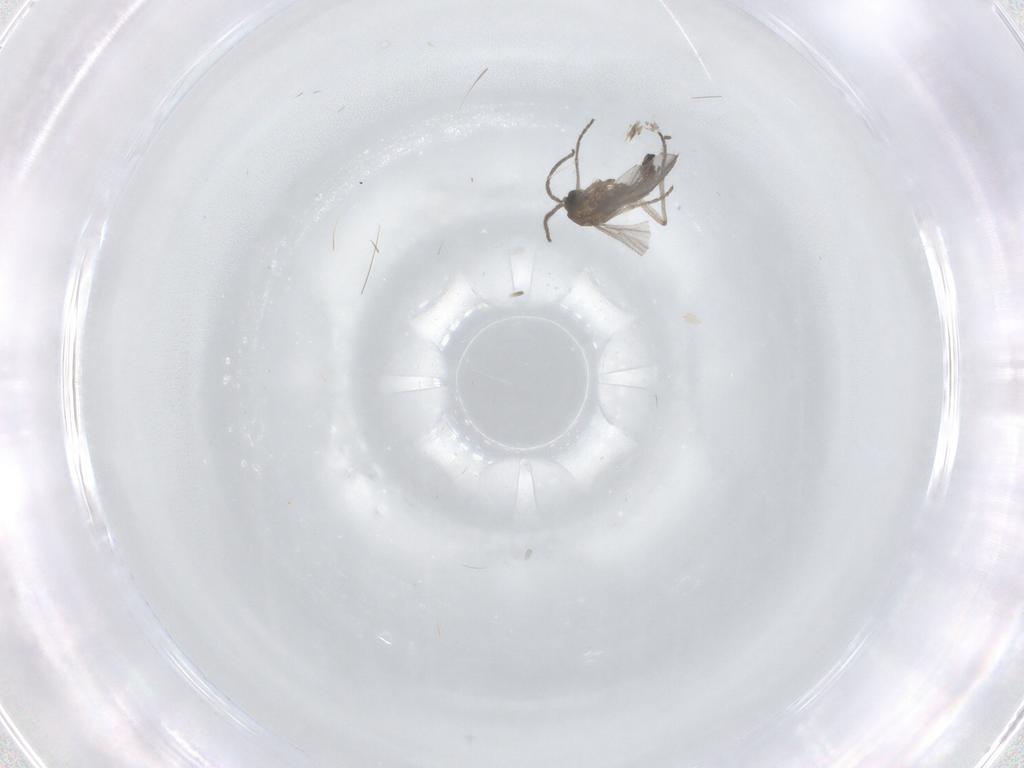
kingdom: Animalia
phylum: Arthropoda
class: Insecta
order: Diptera
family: Sciaridae
